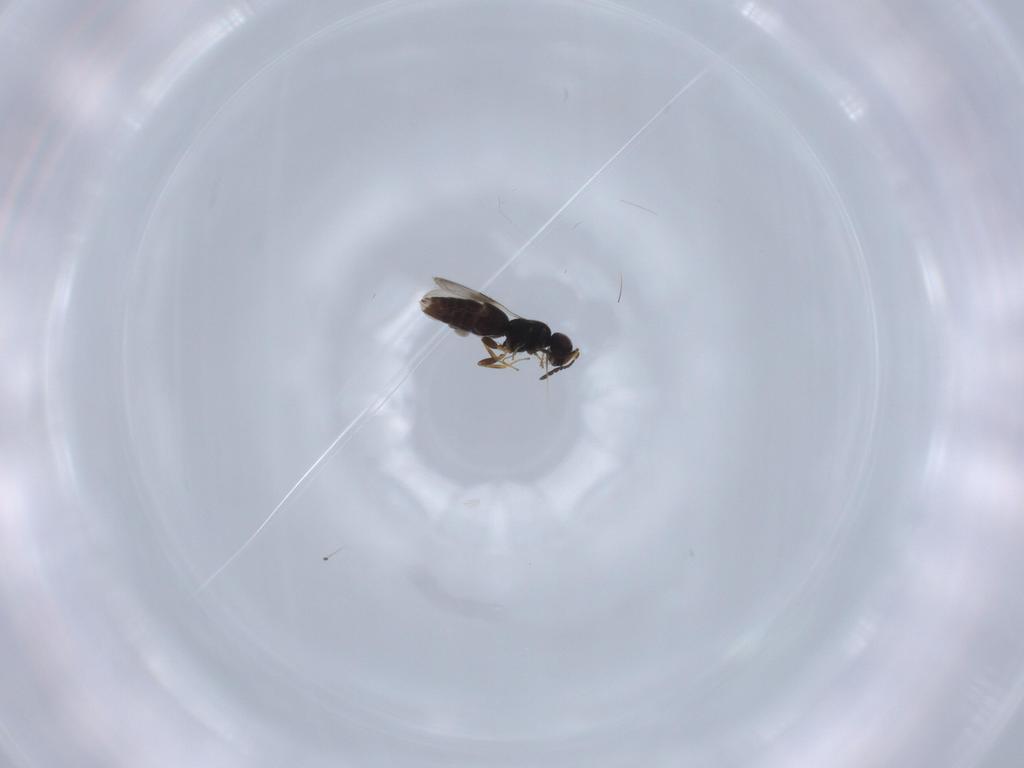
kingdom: Animalia
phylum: Arthropoda
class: Insecta
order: Hymenoptera
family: Ceraphronidae
